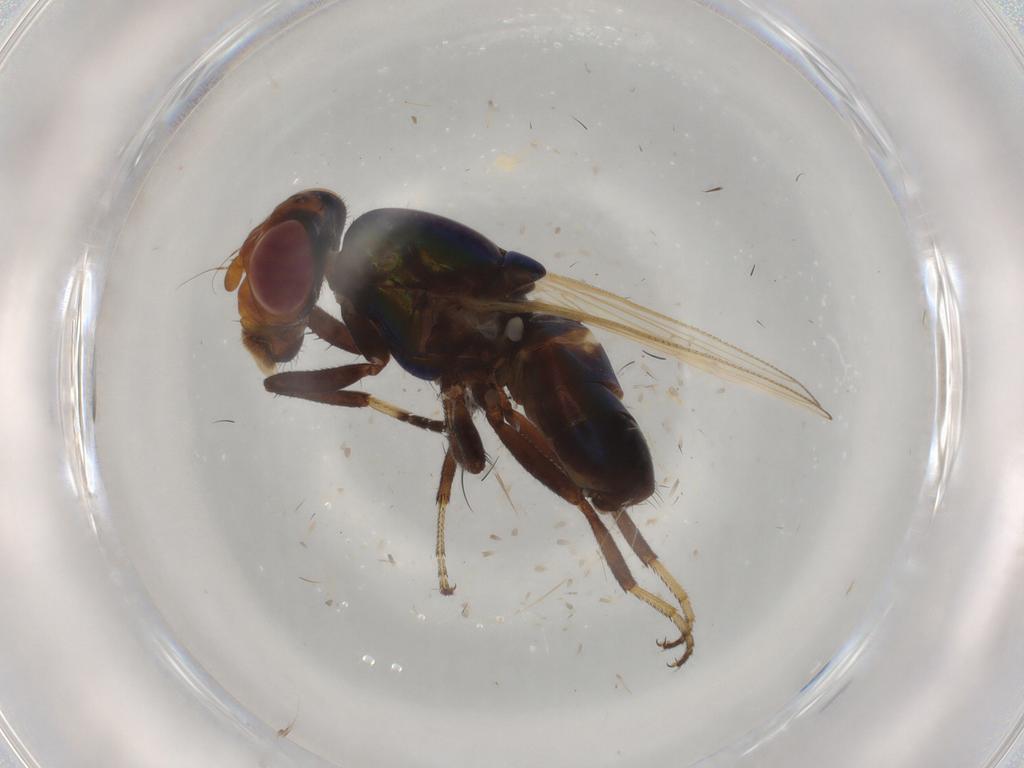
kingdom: Animalia
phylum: Arthropoda
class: Insecta
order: Diptera
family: Ulidiidae
